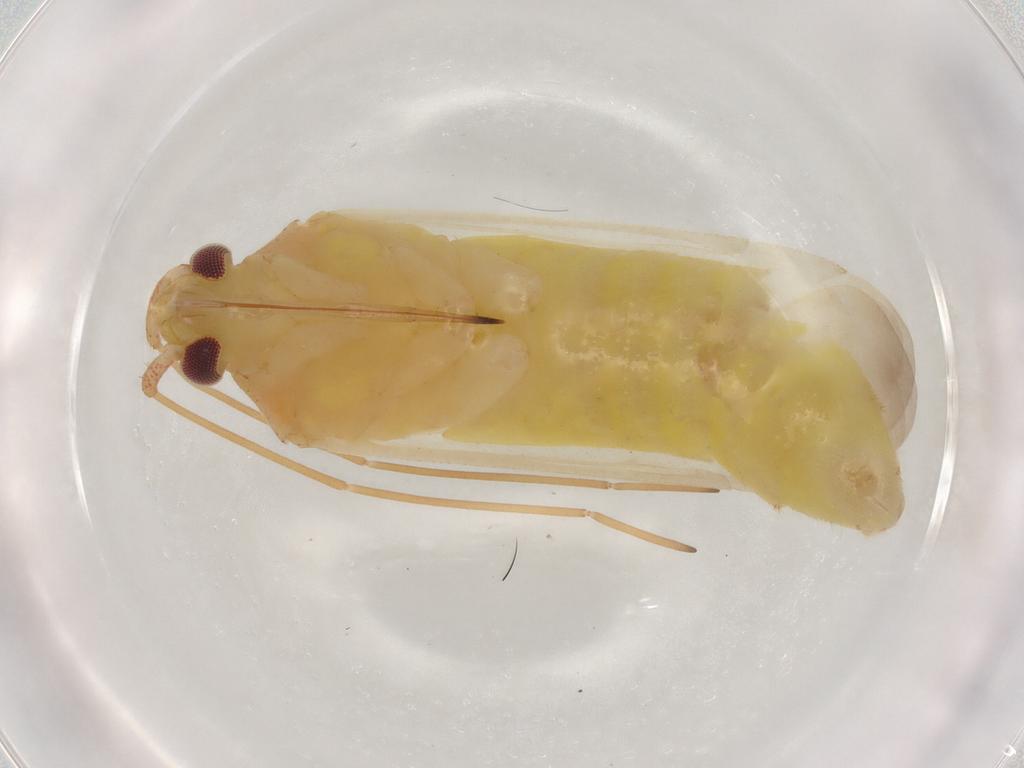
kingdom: Animalia
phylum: Arthropoda
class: Insecta
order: Hemiptera
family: Miridae
